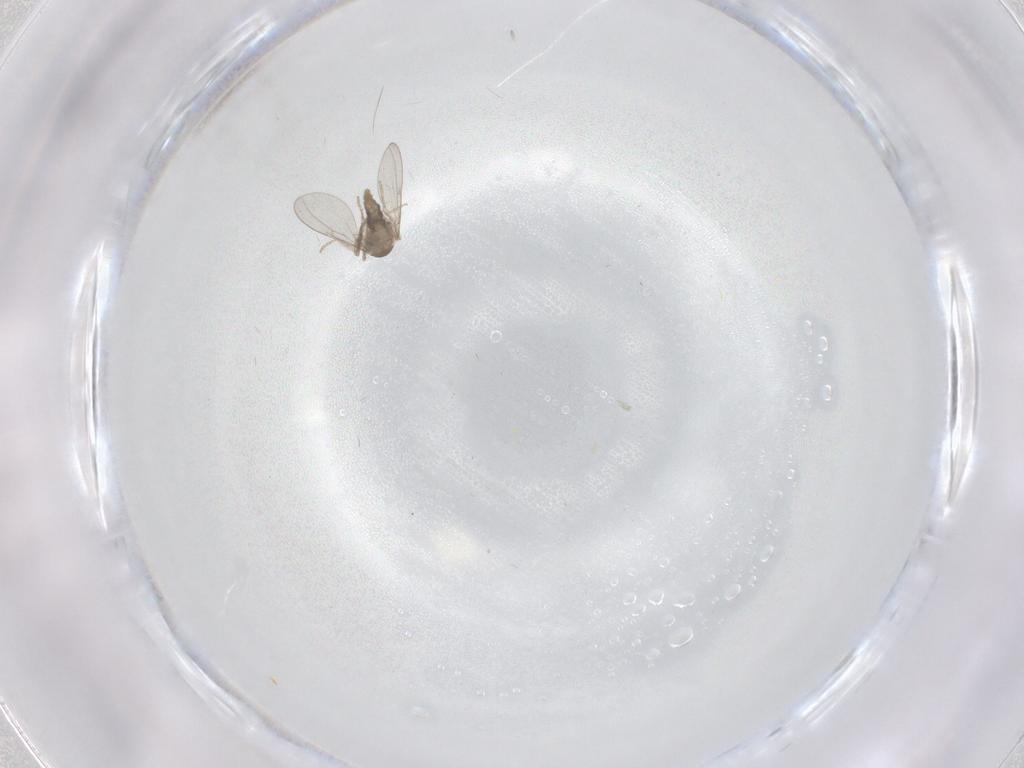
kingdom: Animalia
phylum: Arthropoda
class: Insecta
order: Diptera
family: Cecidomyiidae
